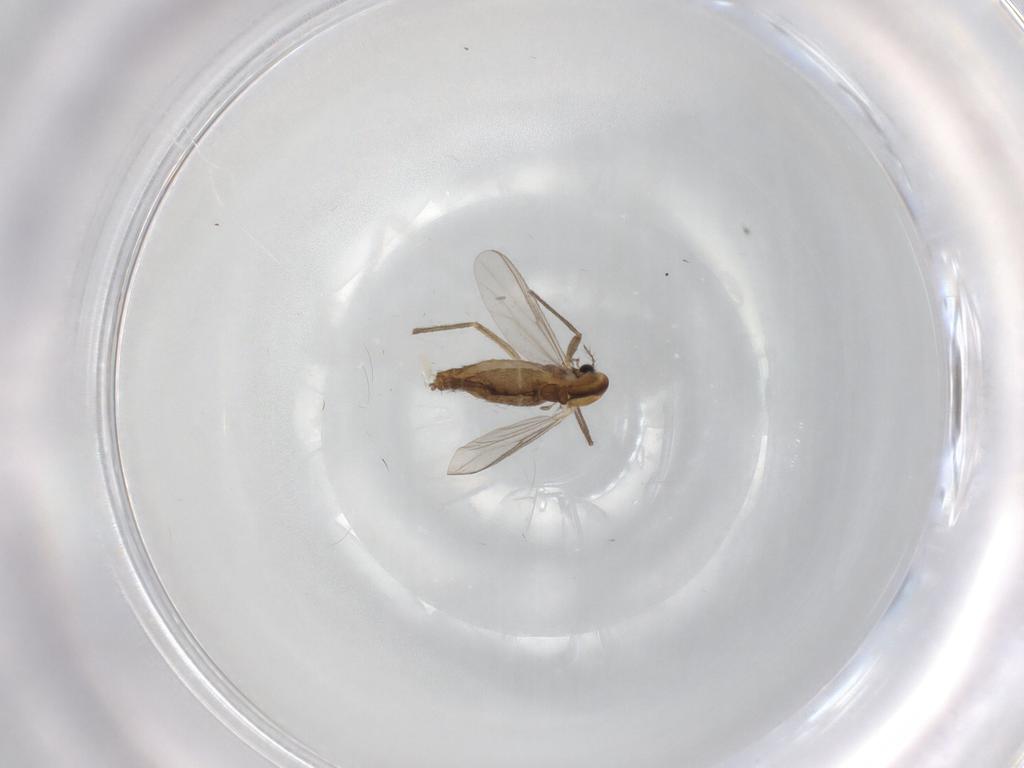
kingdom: Animalia
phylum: Arthropoda
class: Insecta
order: Diptera
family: Chironomidae
